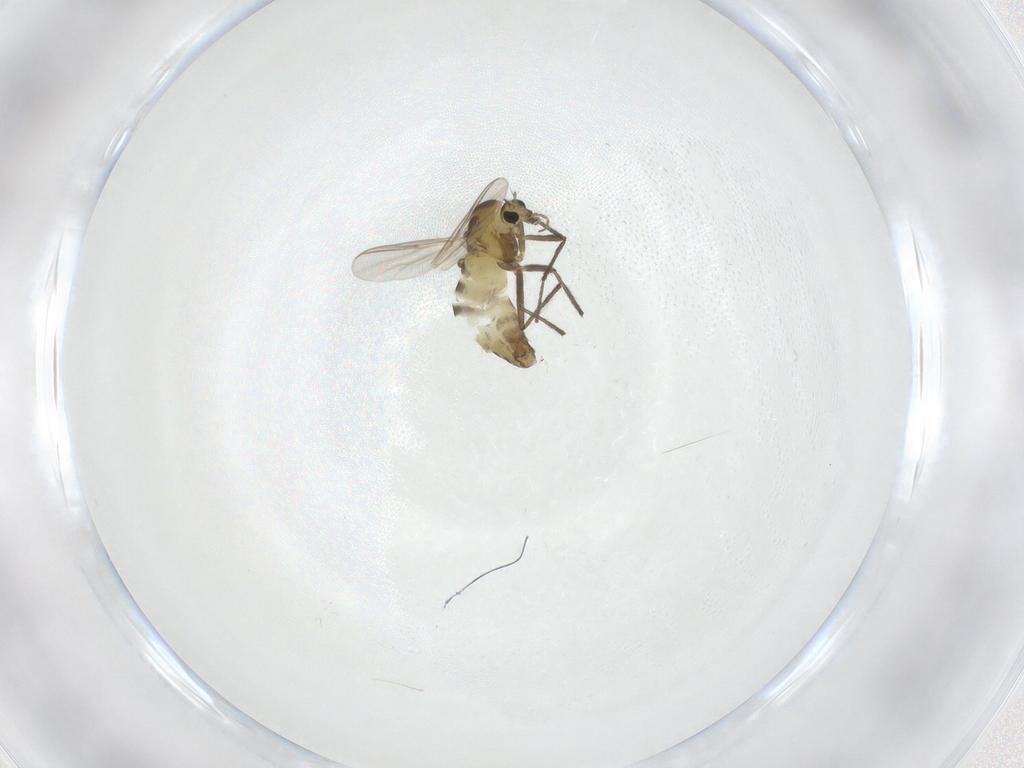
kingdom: Animalia
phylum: Arthropoda
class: Insecta
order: Diptera
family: Chironomidae
